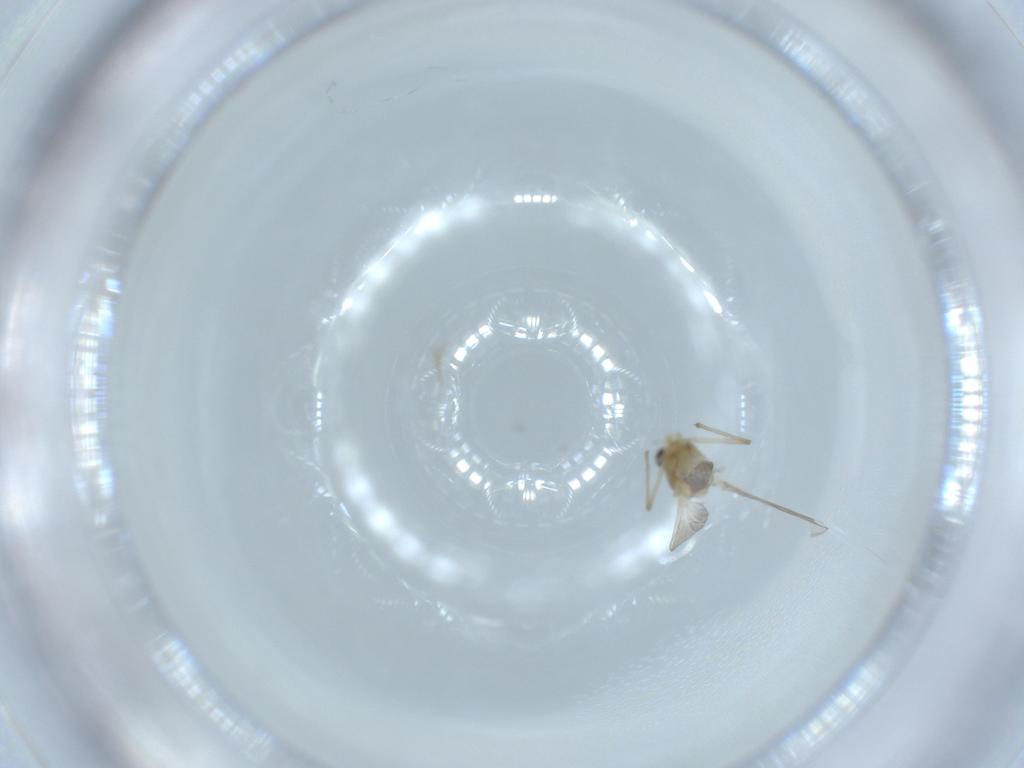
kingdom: Animalia
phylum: Arthropoda
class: Insecta
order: Diptera
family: Chironomidae
